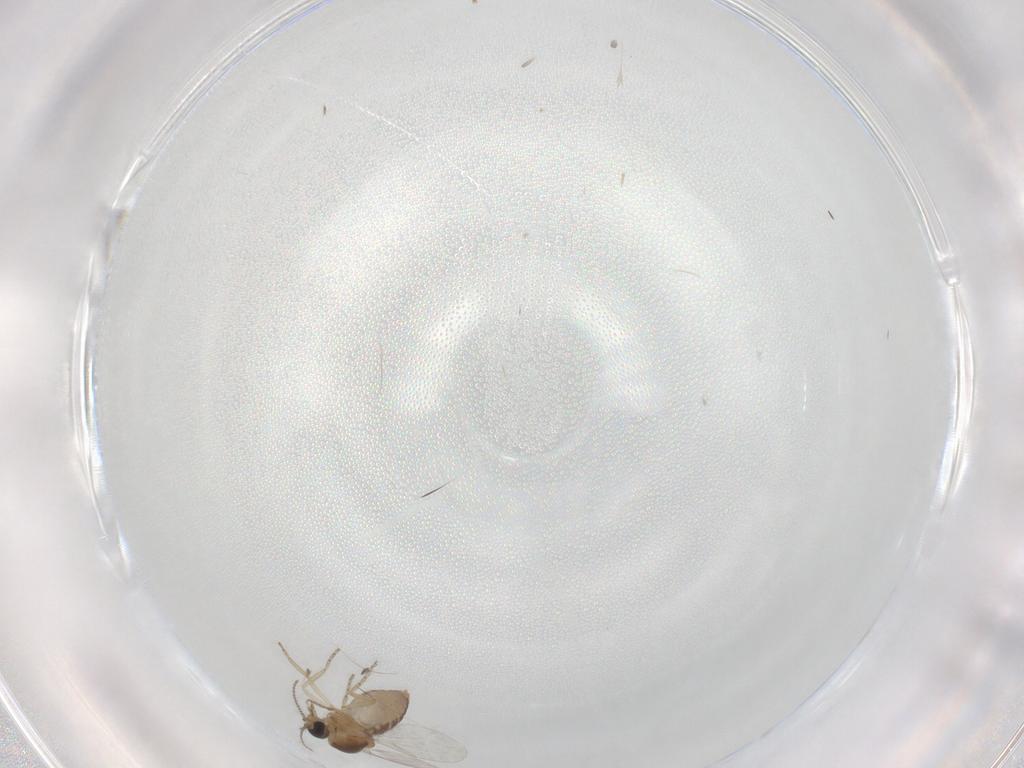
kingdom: Animalia
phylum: Arthropoda
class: Insecta
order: Diptera
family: Ceratopogonidae
